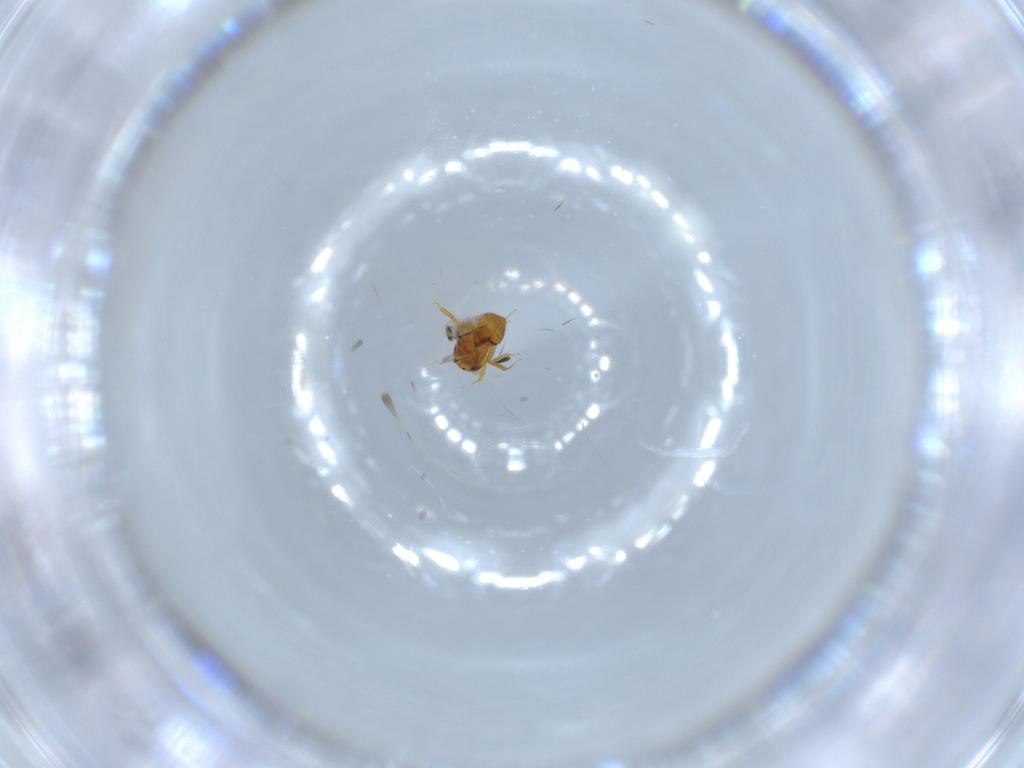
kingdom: Animalia
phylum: Arthropoda
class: Insecta
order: Hymenoptera
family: Scelionidae
